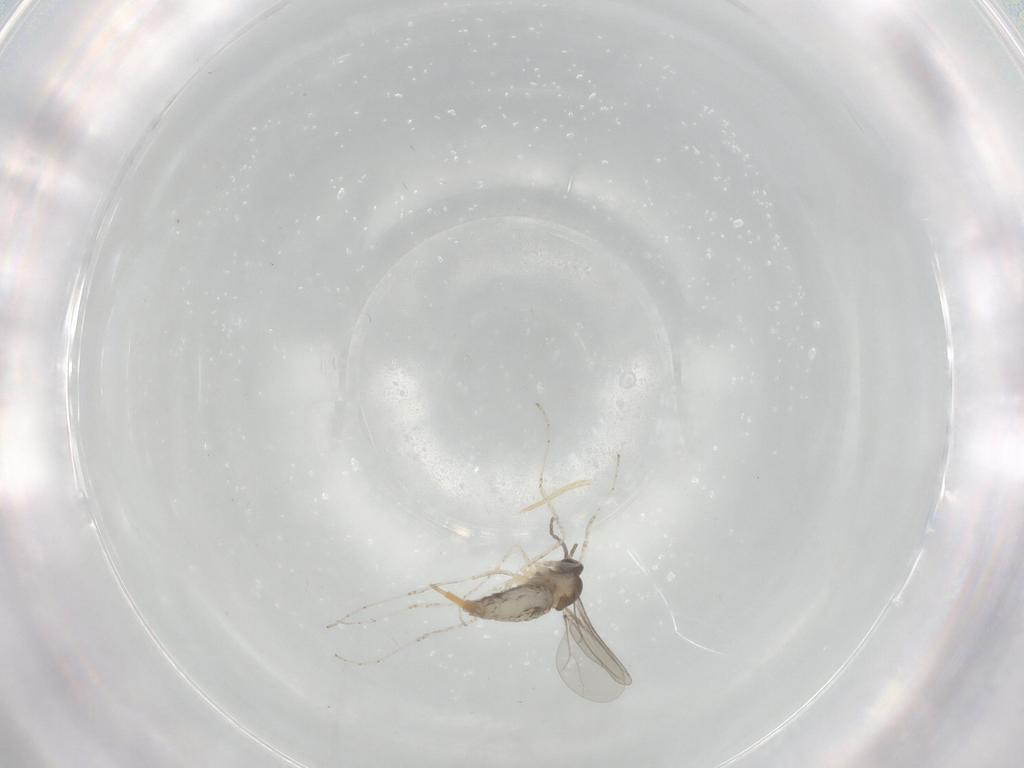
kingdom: Animalia
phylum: Arthropoda
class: Insecta
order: Diptera
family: Cecidomyiidae
